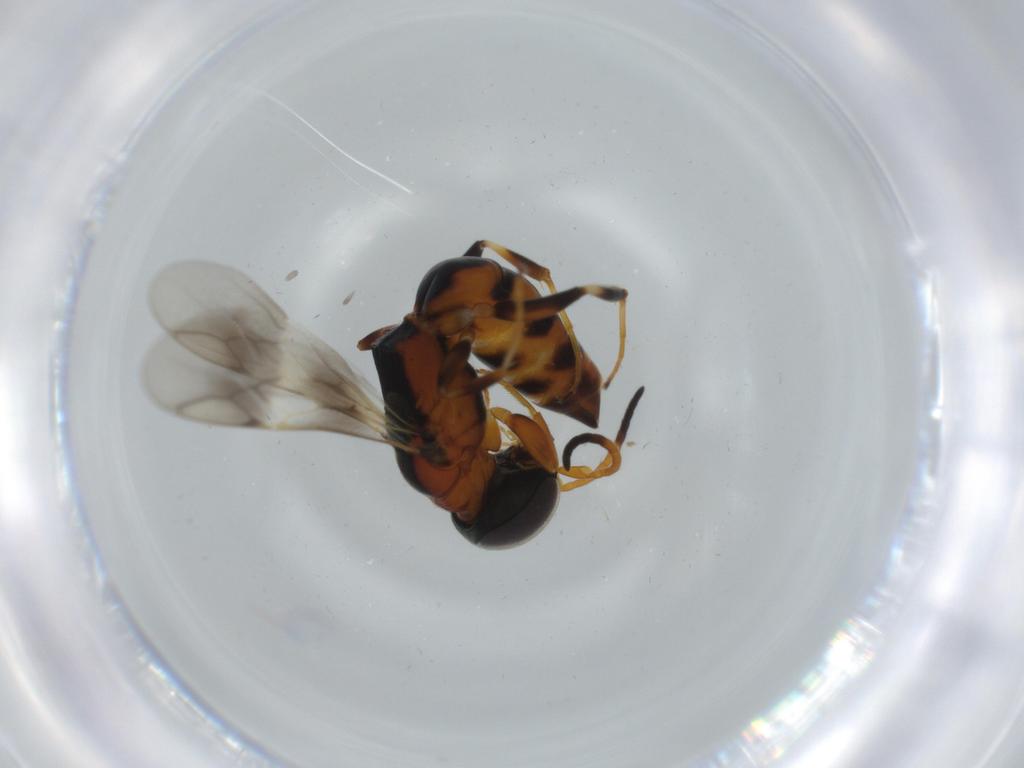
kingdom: Animalia
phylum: Arthropoda
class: Insecta
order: Hymenoptera
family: Crabronidae
